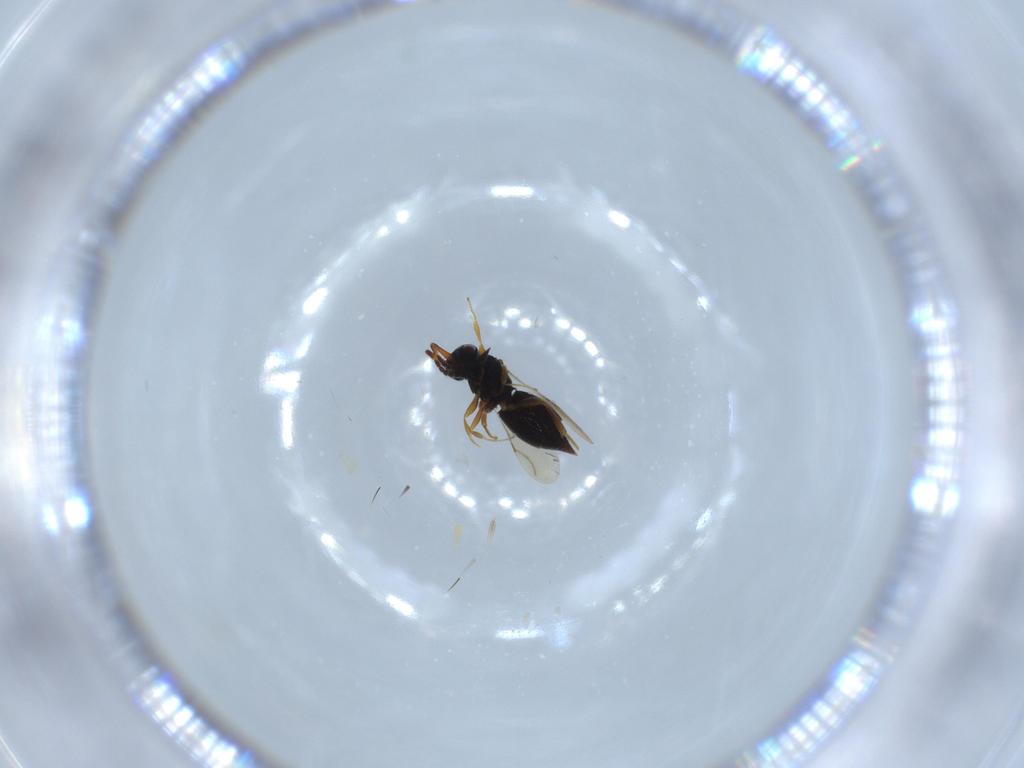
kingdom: Animalia
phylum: Arthropoda
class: Insecta
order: Hymenoptera
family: Ceraphronidae
